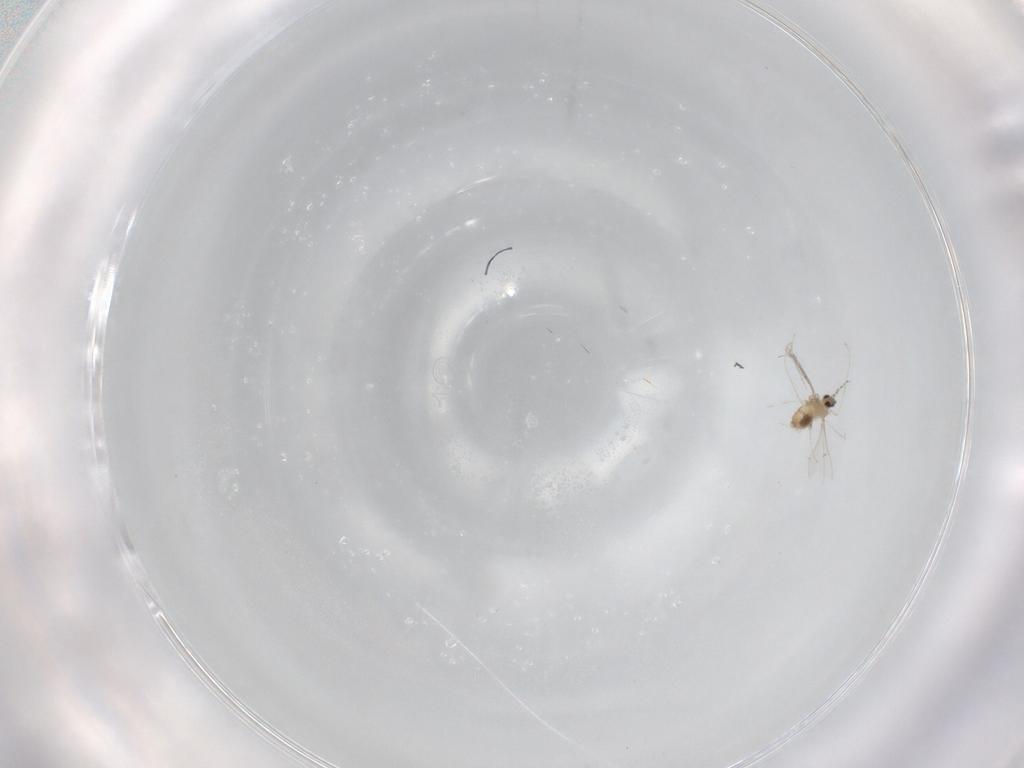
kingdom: Animalia
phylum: Arthropoda
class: Insecta
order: Diptera
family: Cecidomyiidae
